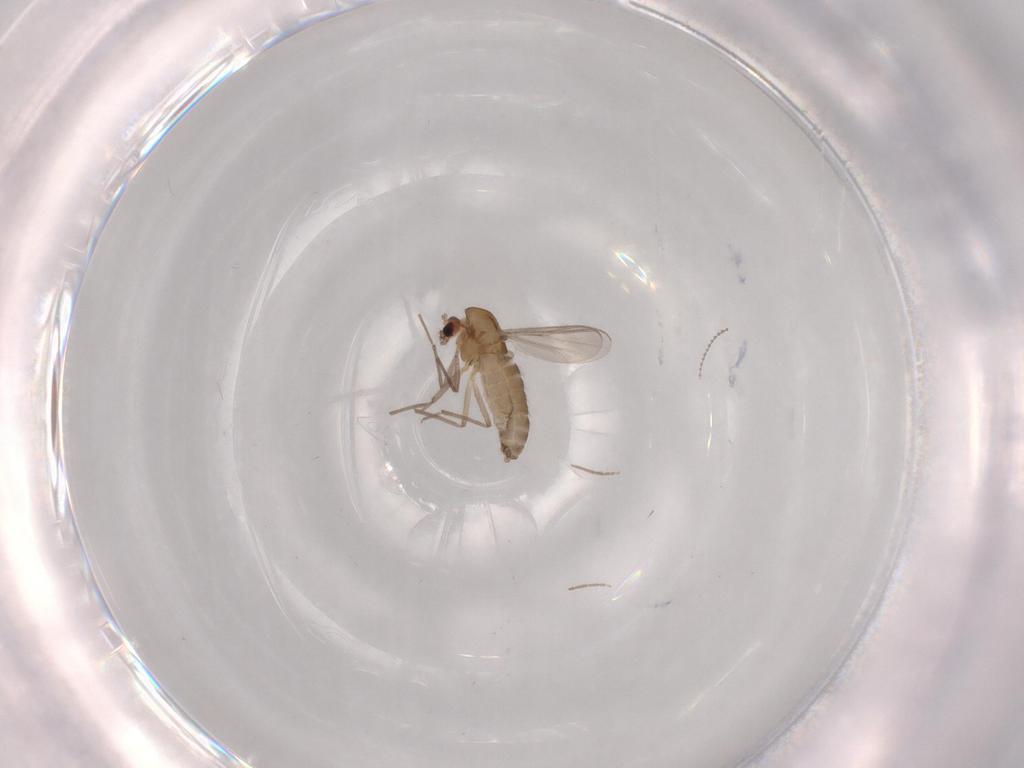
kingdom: Animalia
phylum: Arthropoda
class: Insecta
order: Diptera
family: Chironomidae
